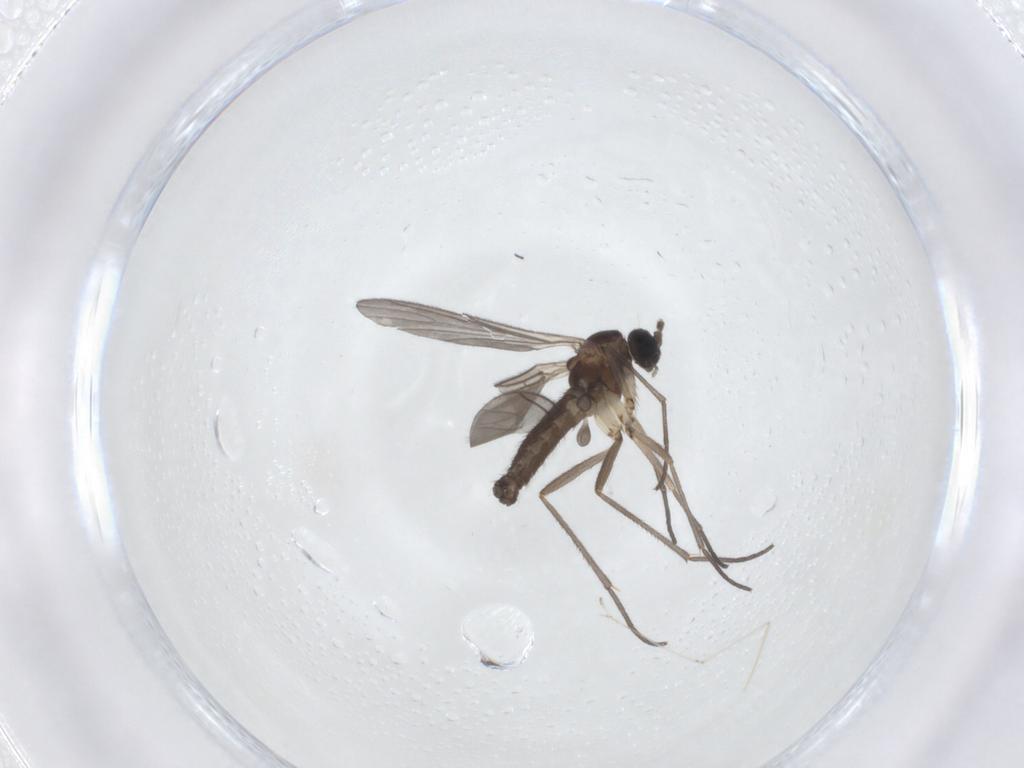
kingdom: Animalia
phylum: Arthropoda
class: Insecta
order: Diptera
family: Cecidomyiidae
